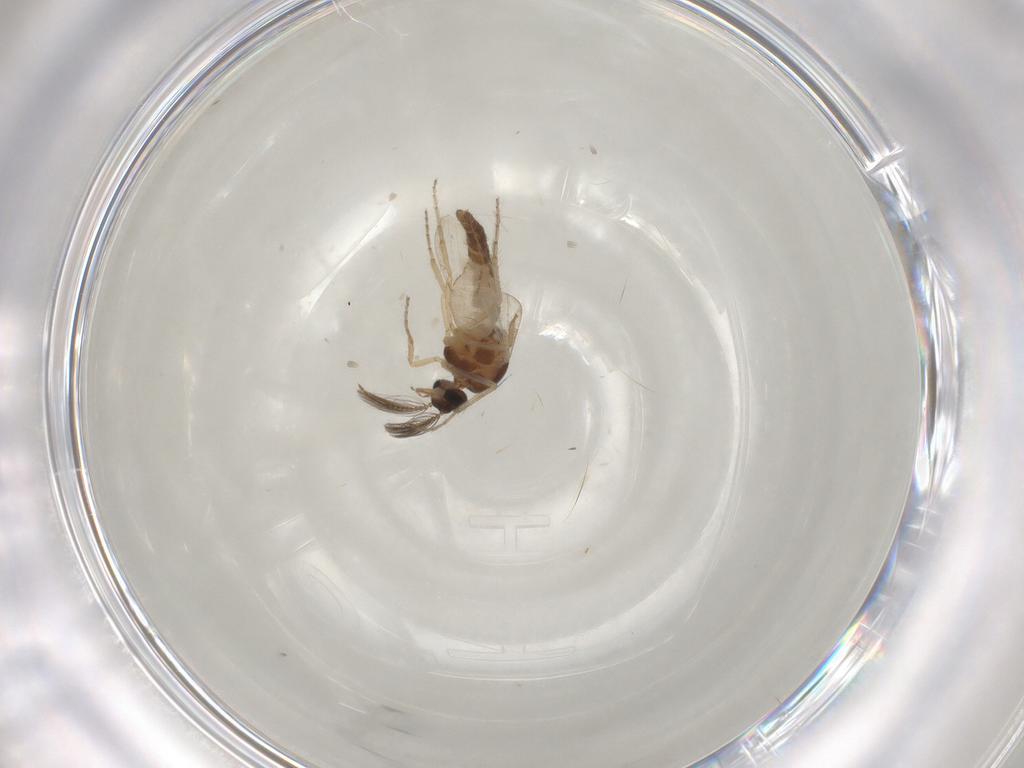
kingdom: Animalia
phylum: Arthropoda
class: Insecta
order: Diptera
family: Ceratopogonidae
